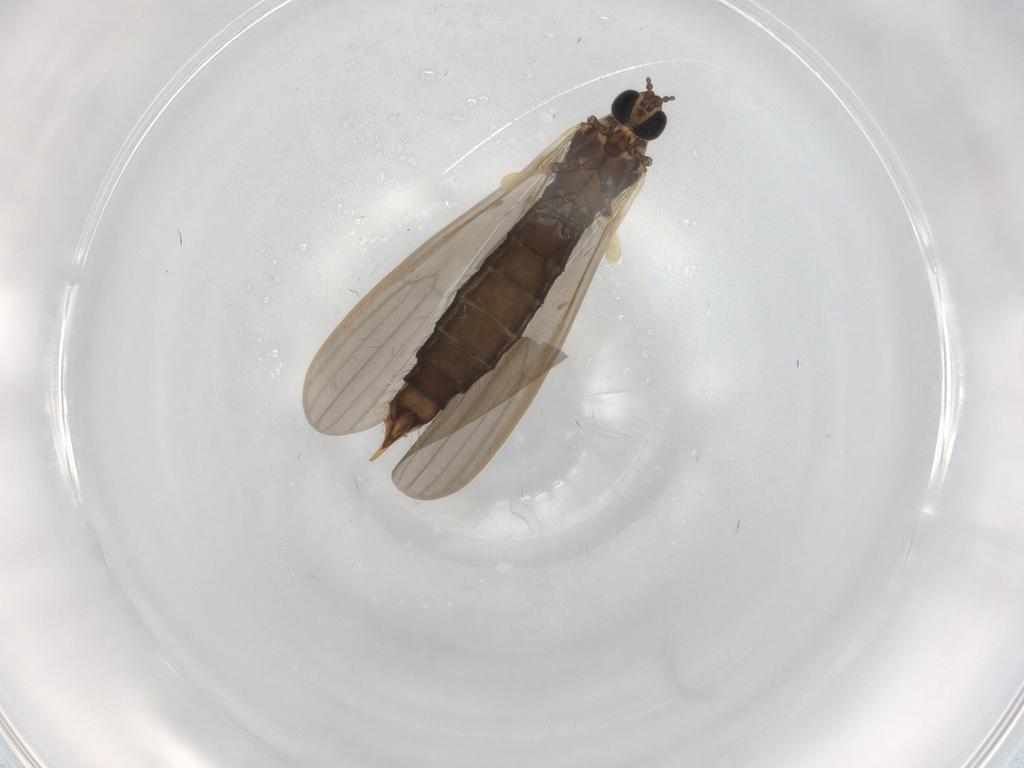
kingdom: Animalia
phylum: Arthropoda
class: Insecta
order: Diptera
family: Limoniidae
